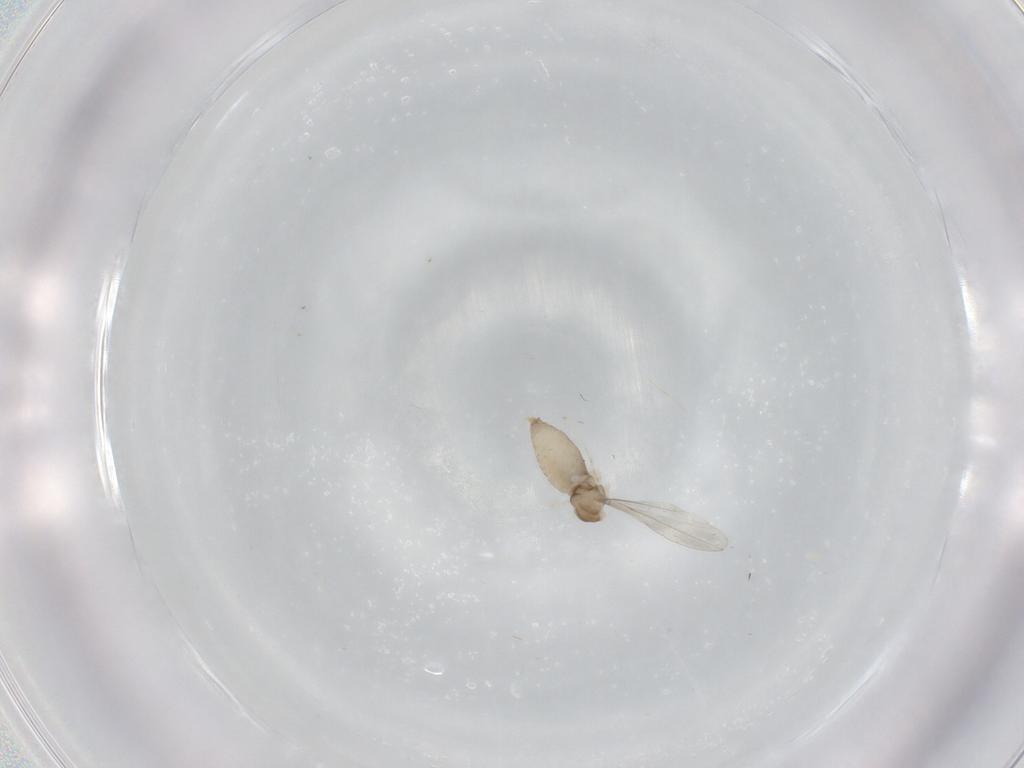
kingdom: Animalia
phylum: Arthropoda
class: Insecta
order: Diptera
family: Cecidomyiidae
